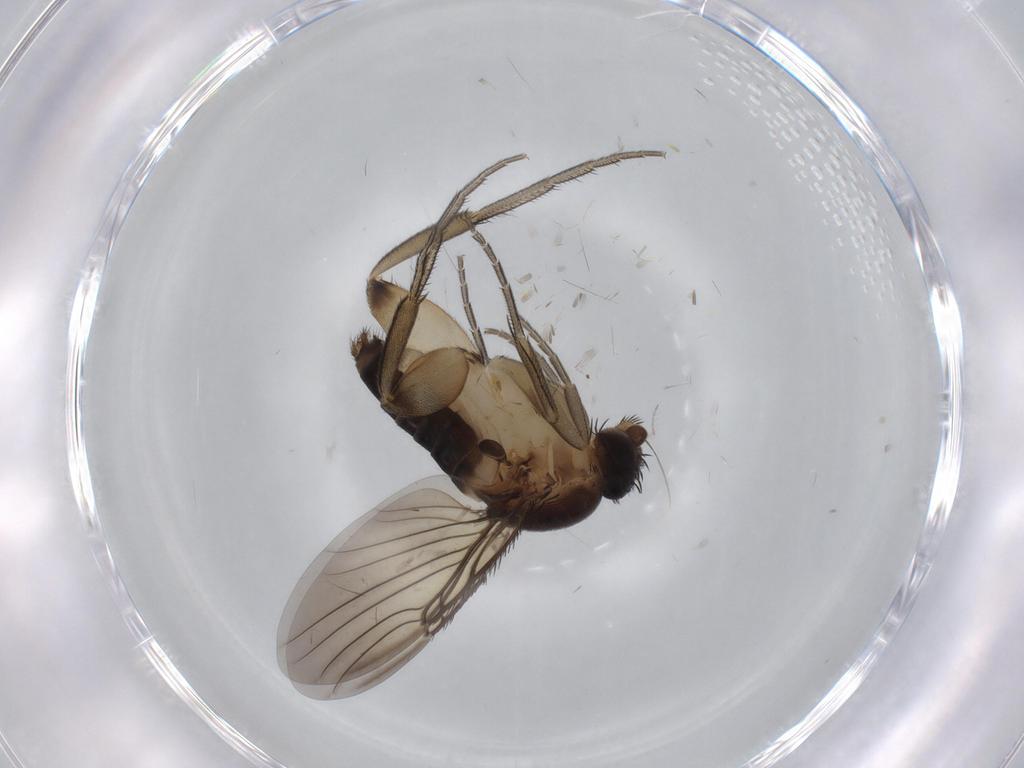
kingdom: Animalia
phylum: Arthropoda
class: Insecta
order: Diptera
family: Phoridae
